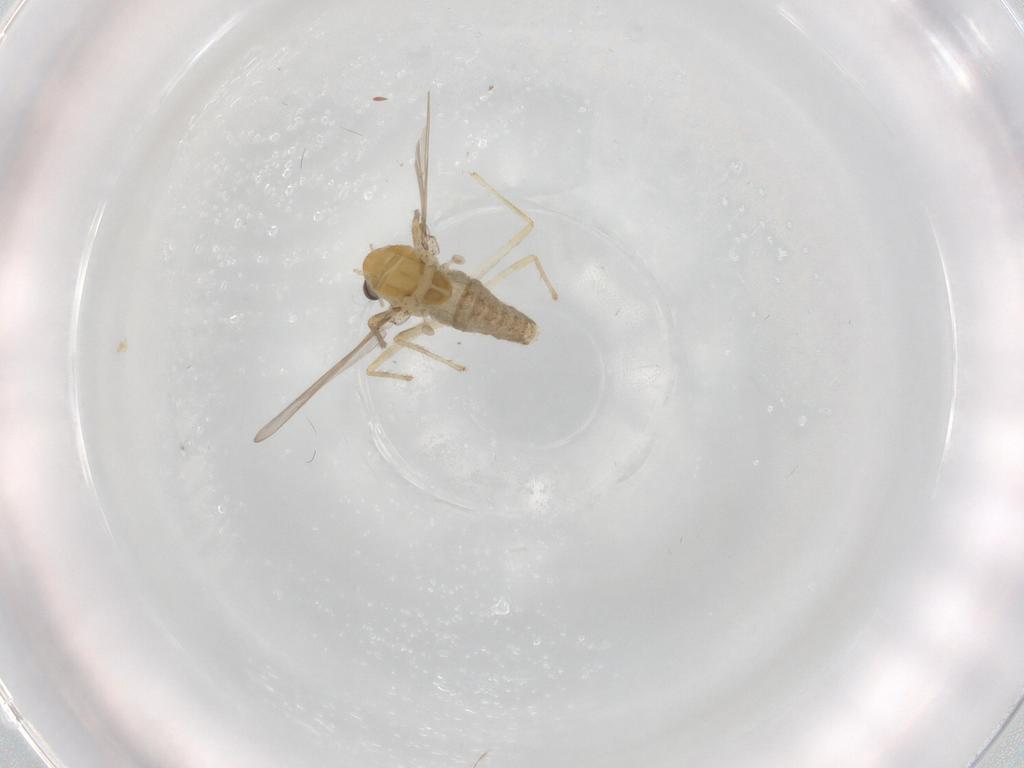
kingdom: Animalia
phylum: Arthropoda
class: Insecta
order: Diptera
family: Chironomidae
